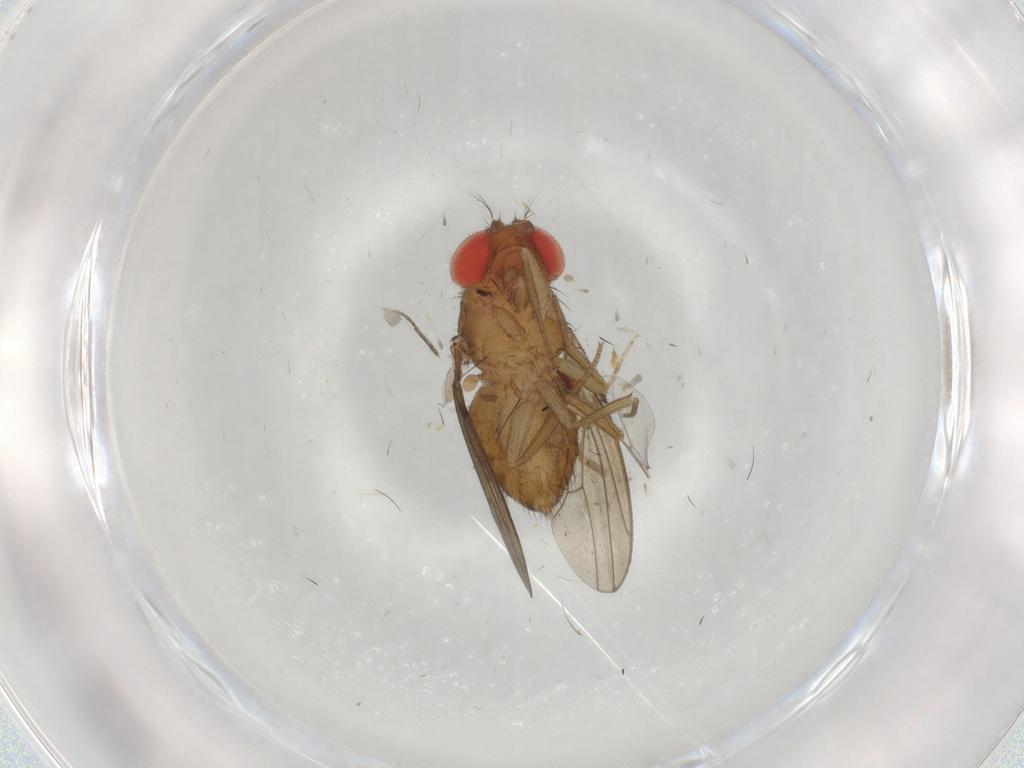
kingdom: Animalia
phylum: Arthropoda
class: Insecta
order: Diptera
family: Drosophilidae
